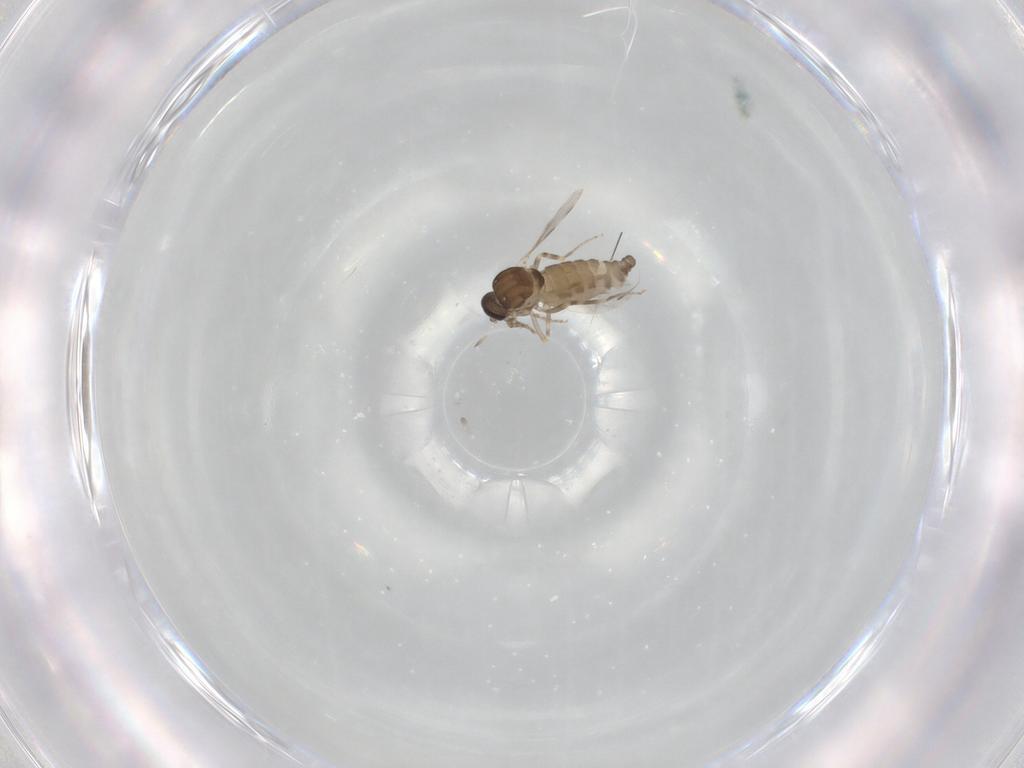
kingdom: Animalia
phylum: Arthropoda
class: Insecta
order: Diptera
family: Ceratopogonidae
